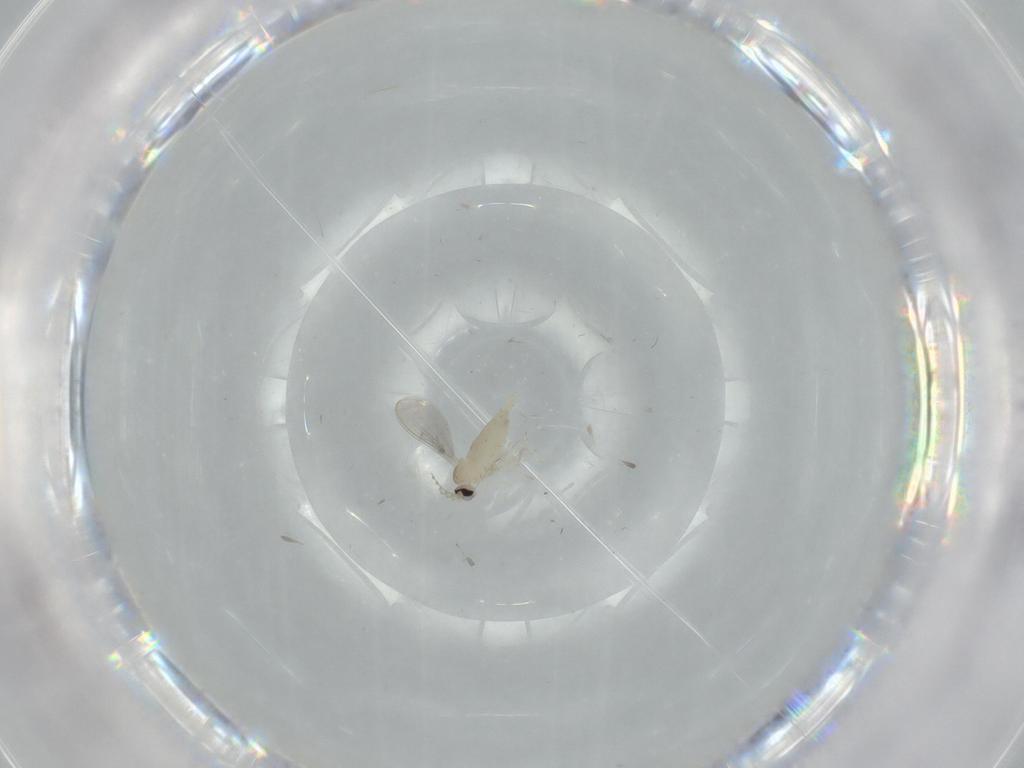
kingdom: Animalia
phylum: Arthropoda
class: Insecta
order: Diptera
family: Cecidomyiidae
